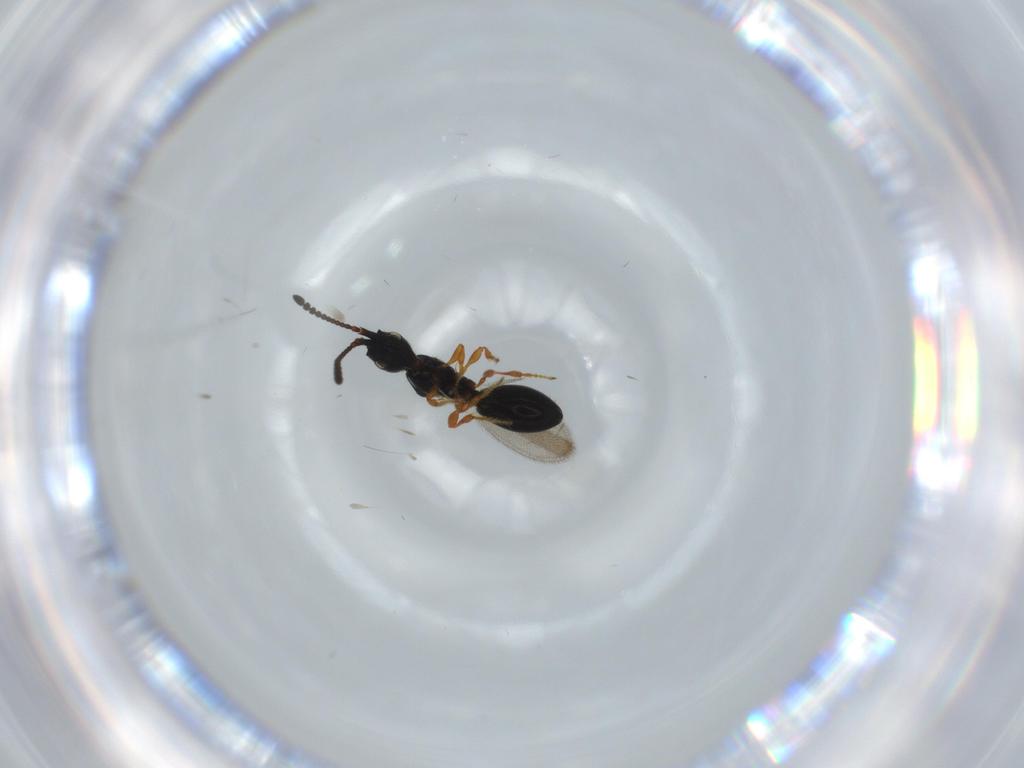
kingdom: Animalia
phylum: Arthropoda
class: Insecta
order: Hymenoptera
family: Diapriidae
